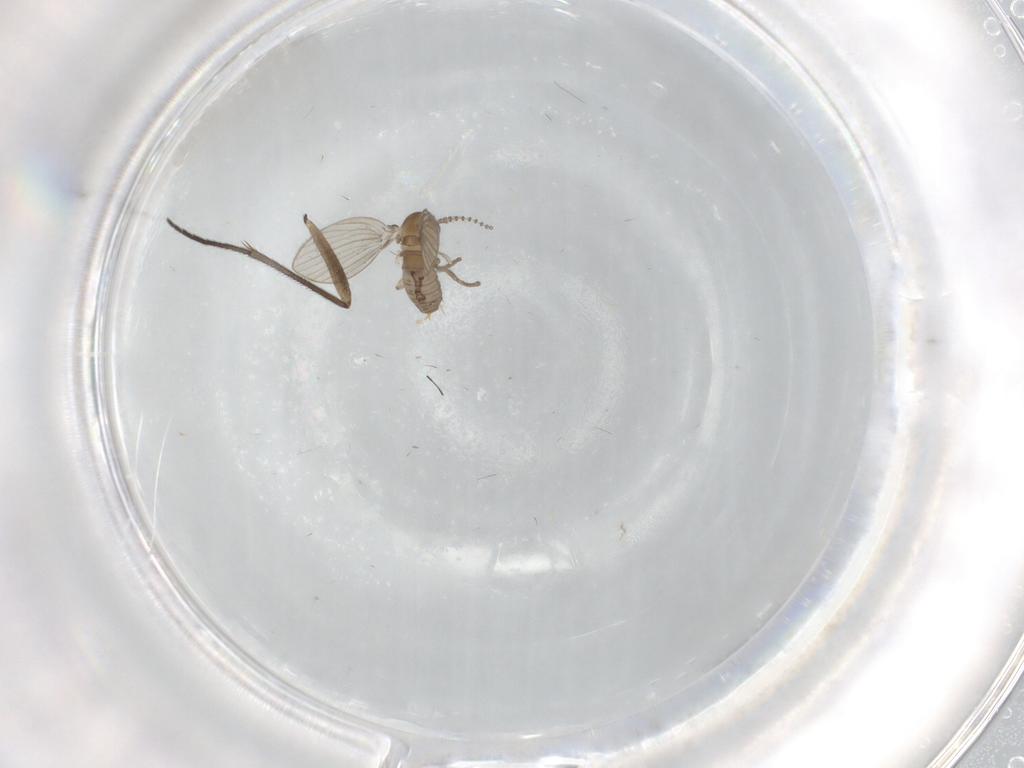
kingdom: Animalia
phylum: Arthropoda
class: Insecta
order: Diptera
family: Psychodidae
